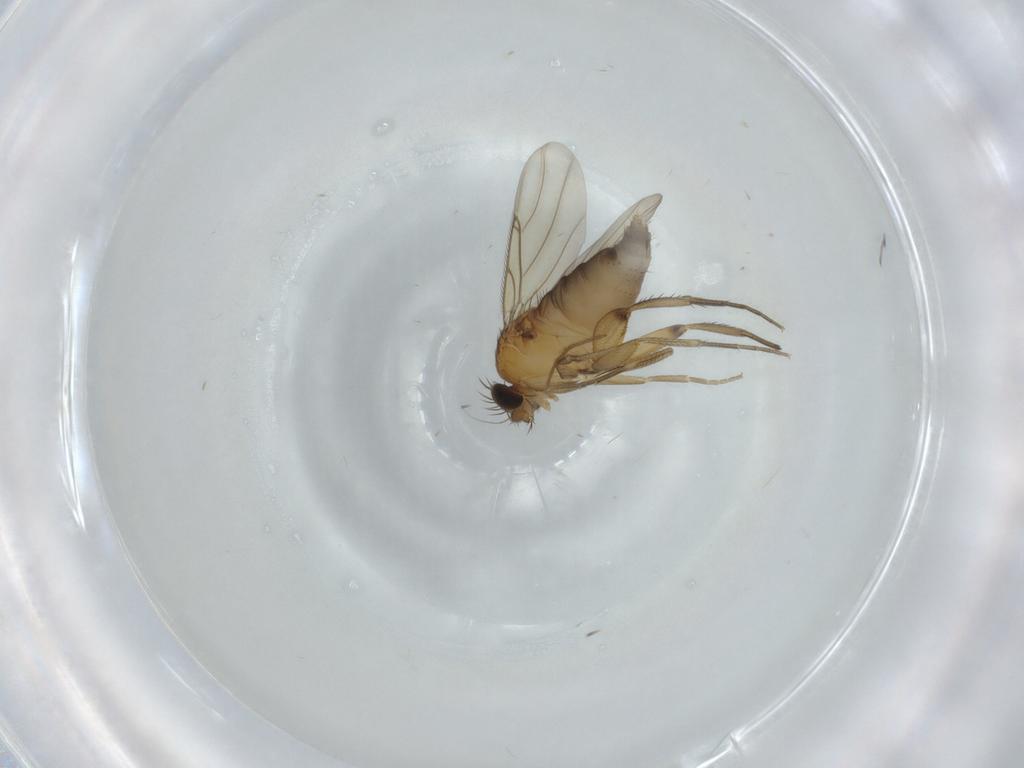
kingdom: Animalia
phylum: Arthropoda
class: Insecta
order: Diptera
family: Phoridae
